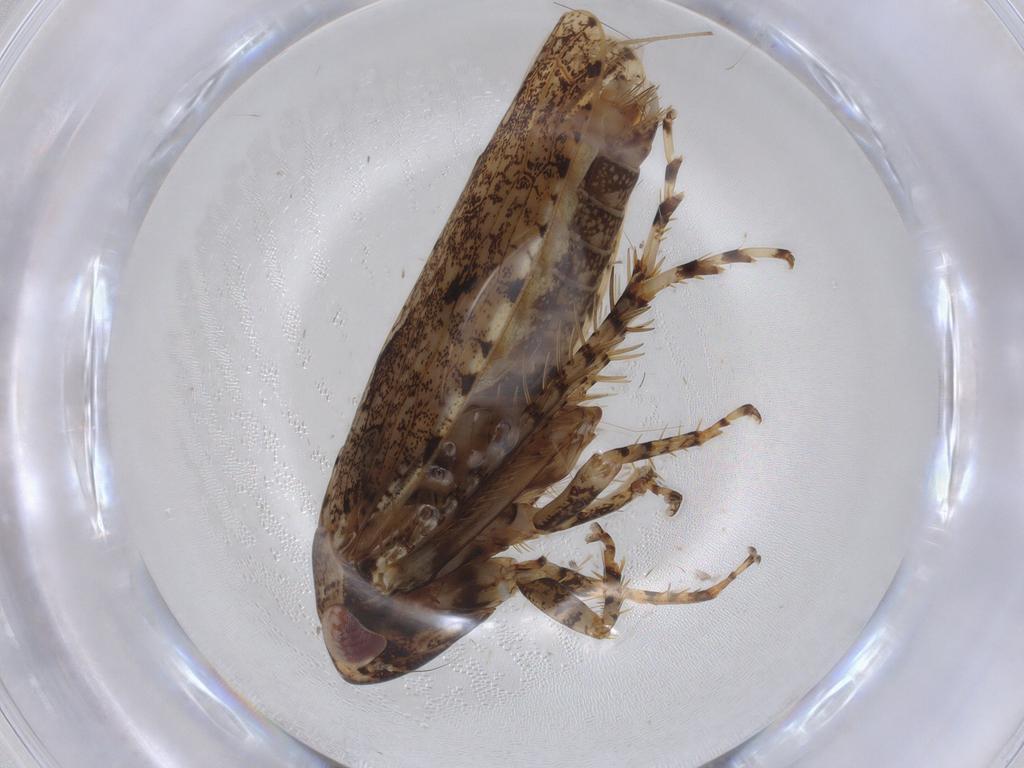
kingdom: Animalia
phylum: Arthropoda
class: Insecta
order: Hemiptera
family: Cicadellidae
